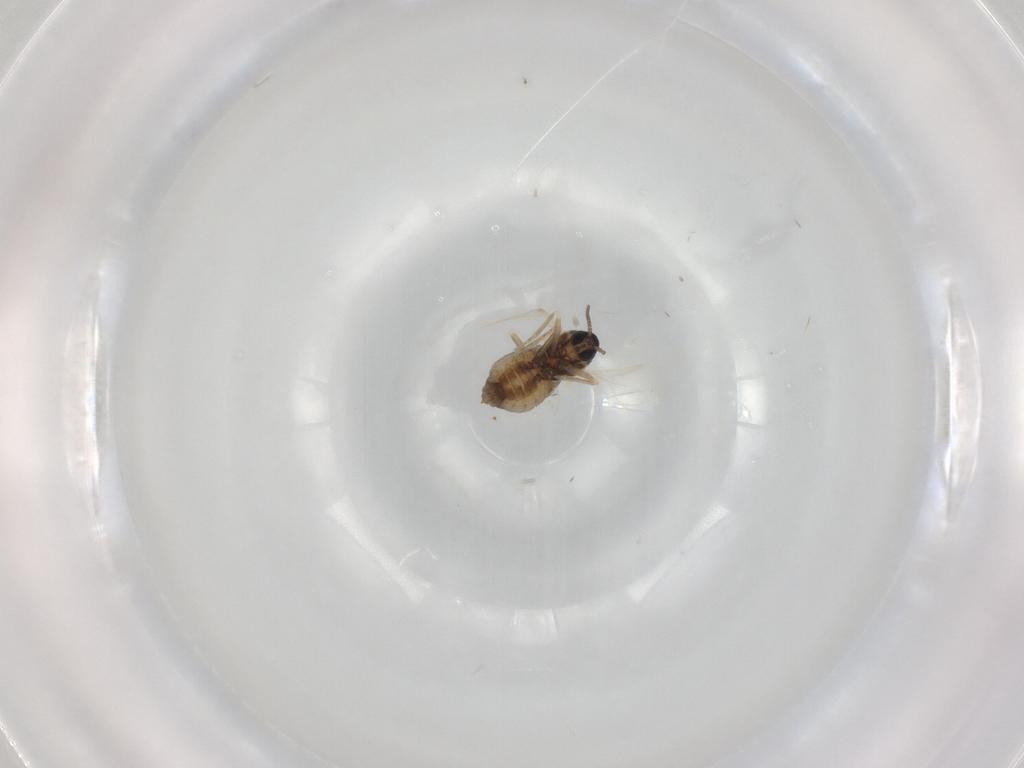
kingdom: Animalia
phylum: Arthropoda
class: Insecta
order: Diptera
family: Cecidomyiidae
